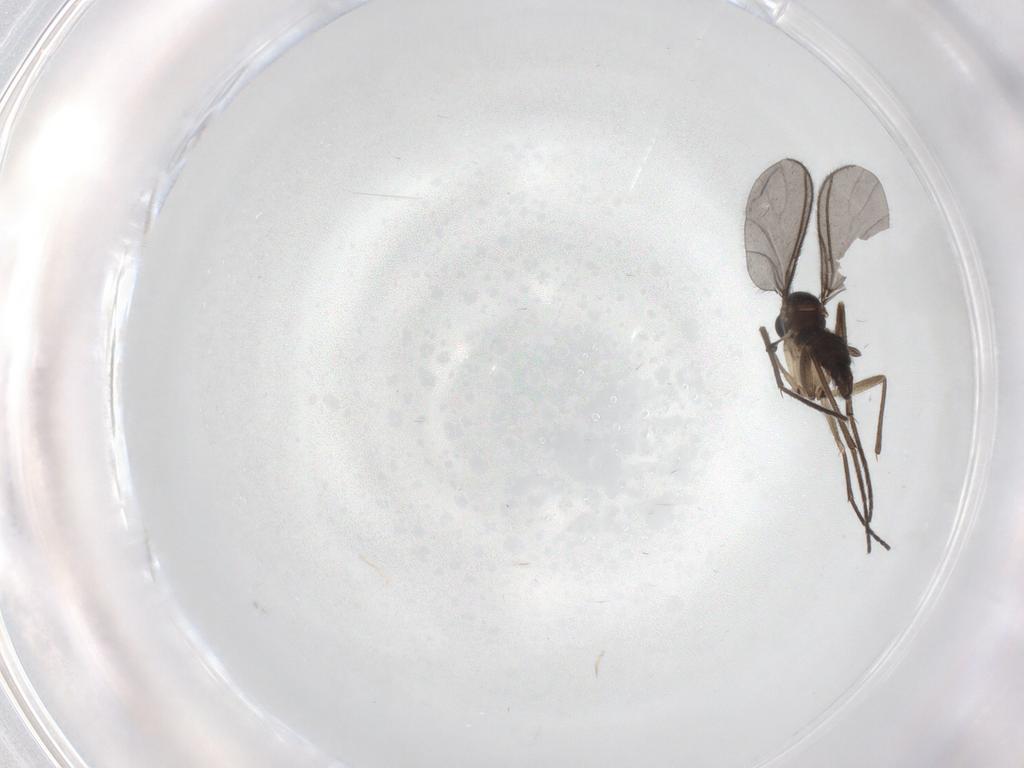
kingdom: Animalia
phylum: Arthropoda
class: Insecta
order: Diptera
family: Sciaridae
